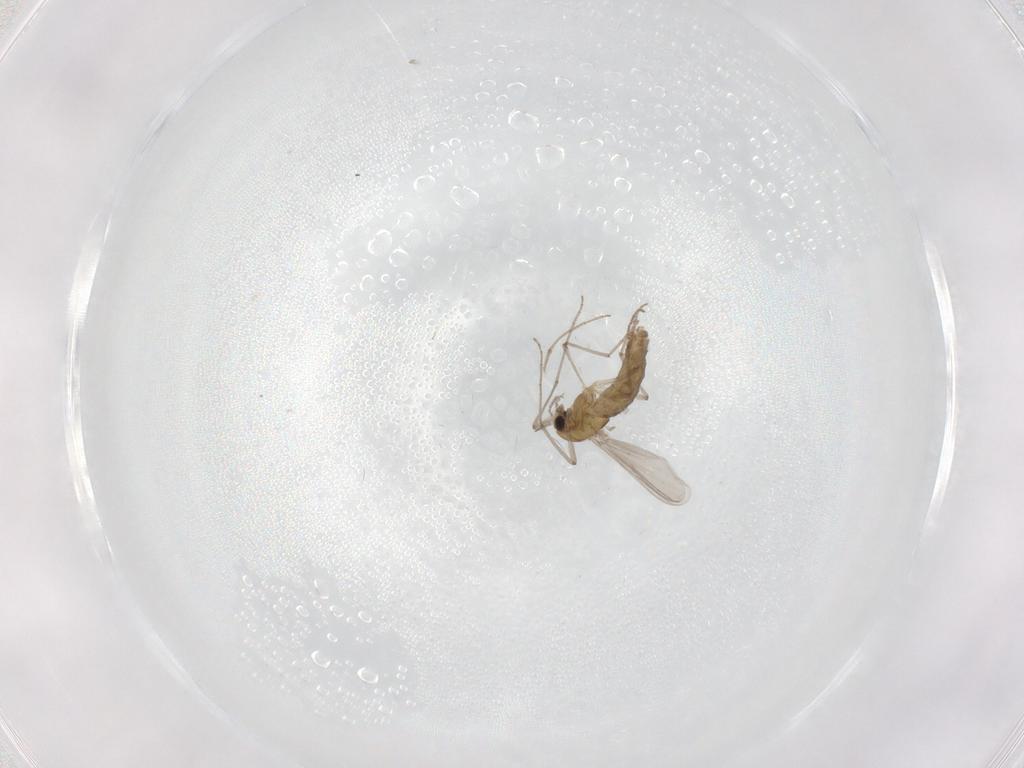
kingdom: Animalia
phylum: Arthropoda
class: Insecta
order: Diptera
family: Chironomidae
